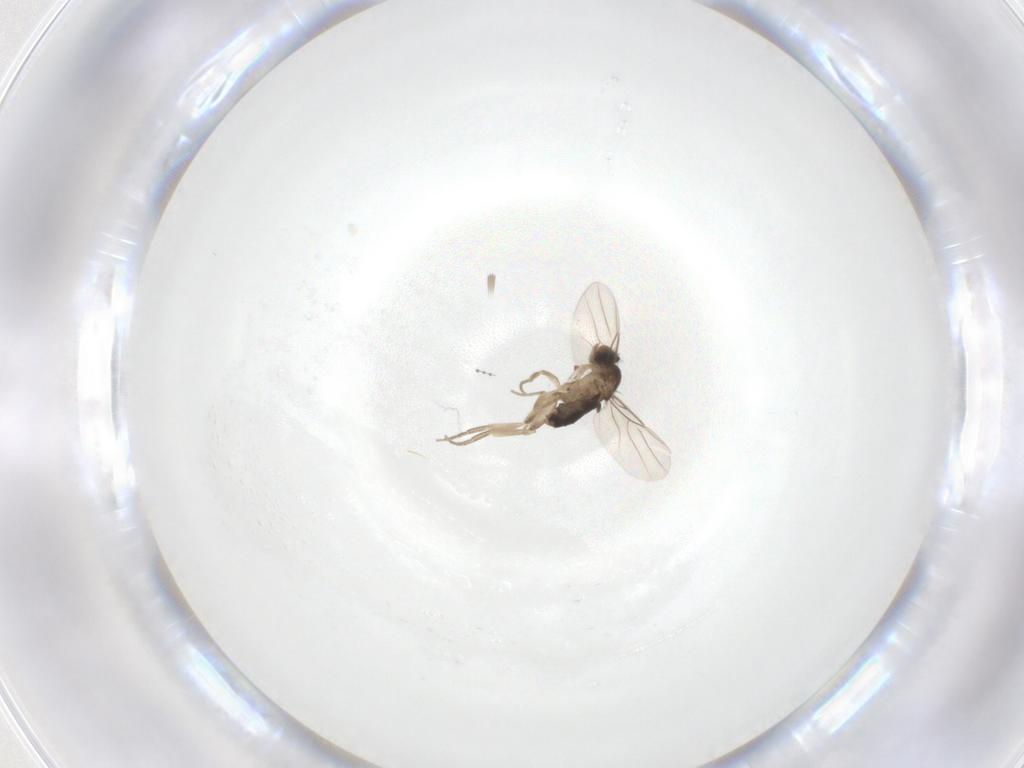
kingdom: Animalia
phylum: Arthropoda
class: Insecta
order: Diptera
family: Phoridae
